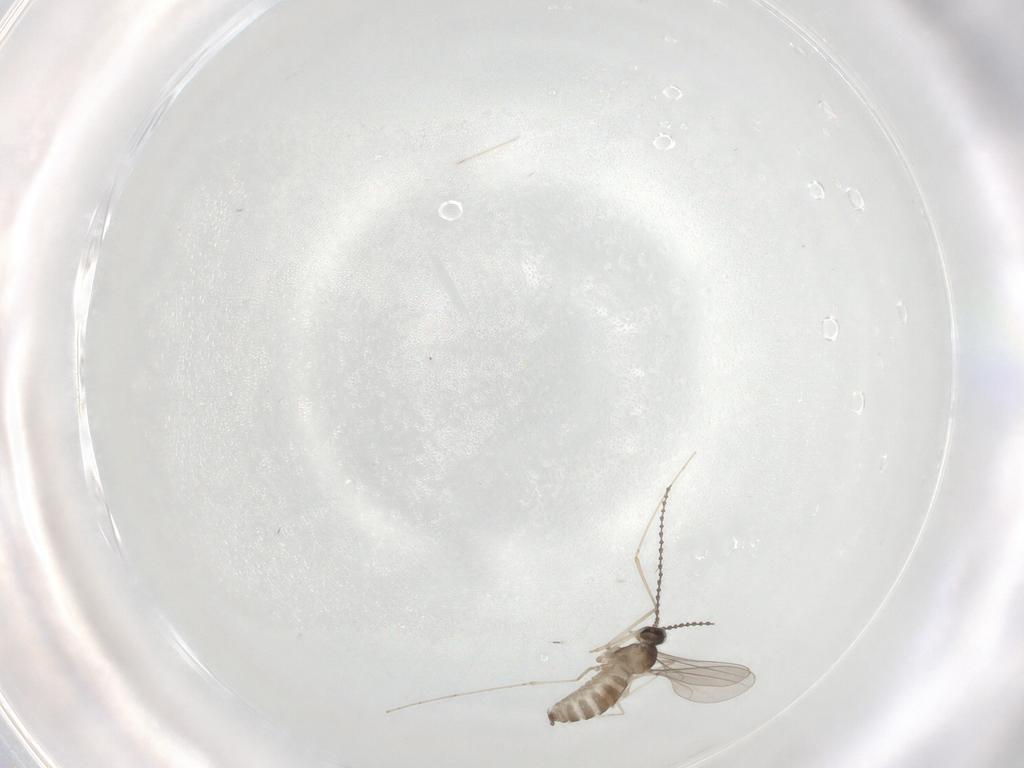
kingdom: Animalia
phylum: Arthropoda
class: Insecta
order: Diptera
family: Cecidomyiidae
